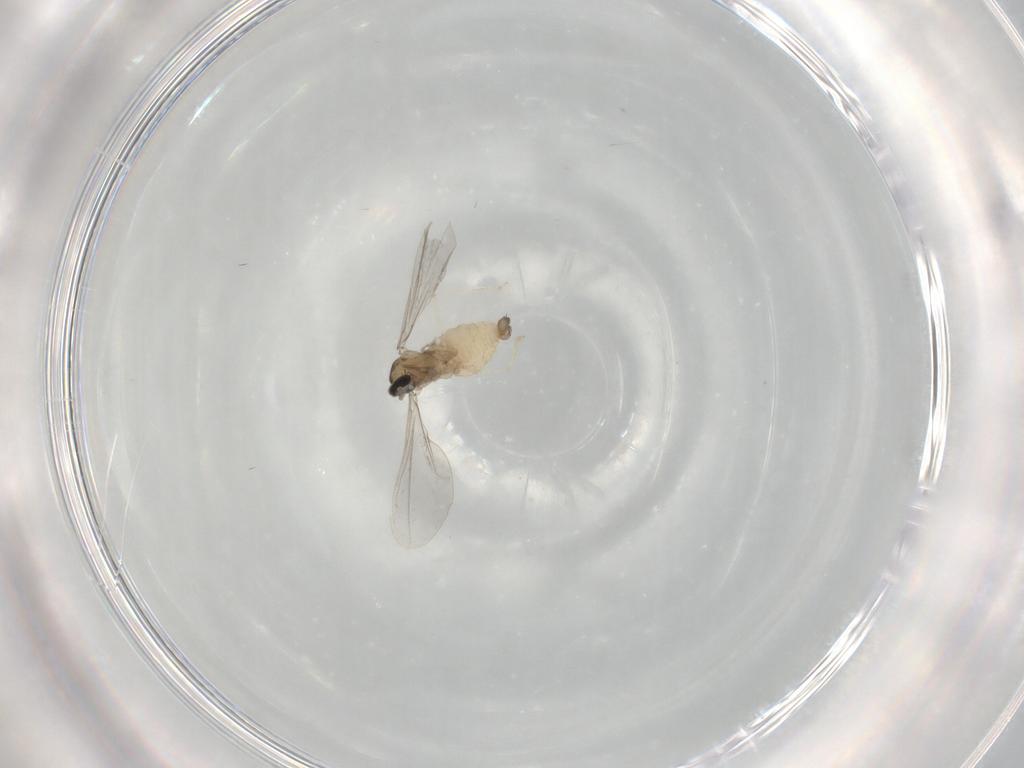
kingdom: Animalia
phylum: Arthropoda
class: Insecta
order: Diptera
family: Cecidomyiidae
